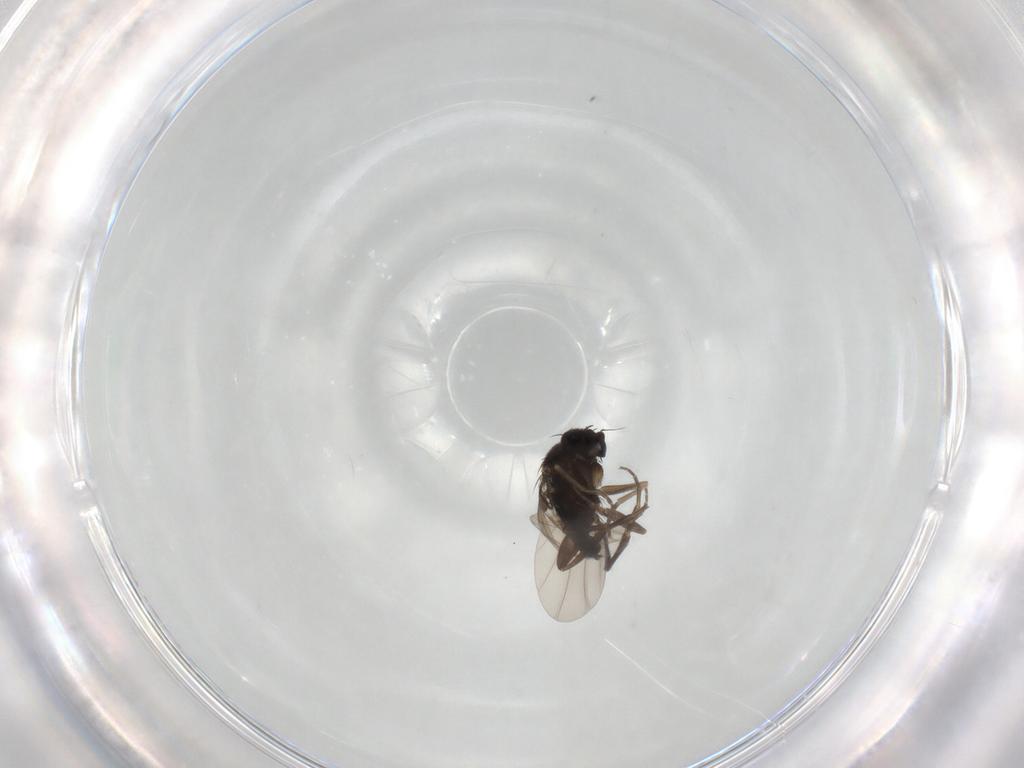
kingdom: Animalia
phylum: Arthropoda
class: Insecta
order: Diptera
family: Phoridae
